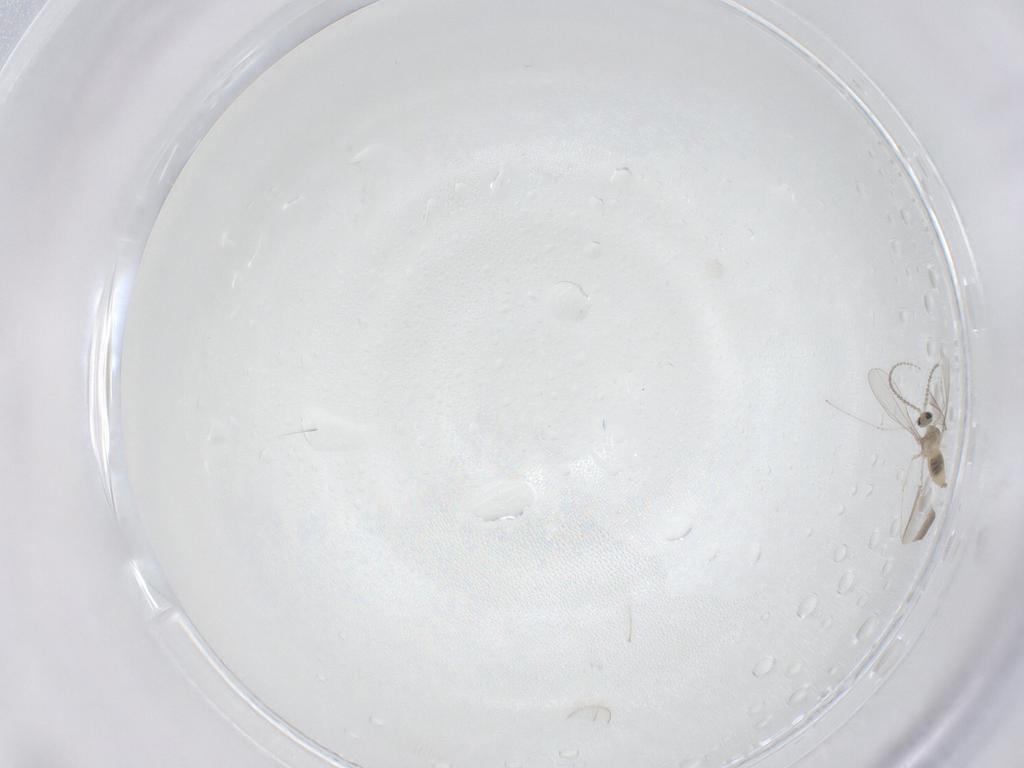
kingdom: Animalia
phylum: Arthropoda
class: Insecta
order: Diptera
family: Cecidomyiidae
